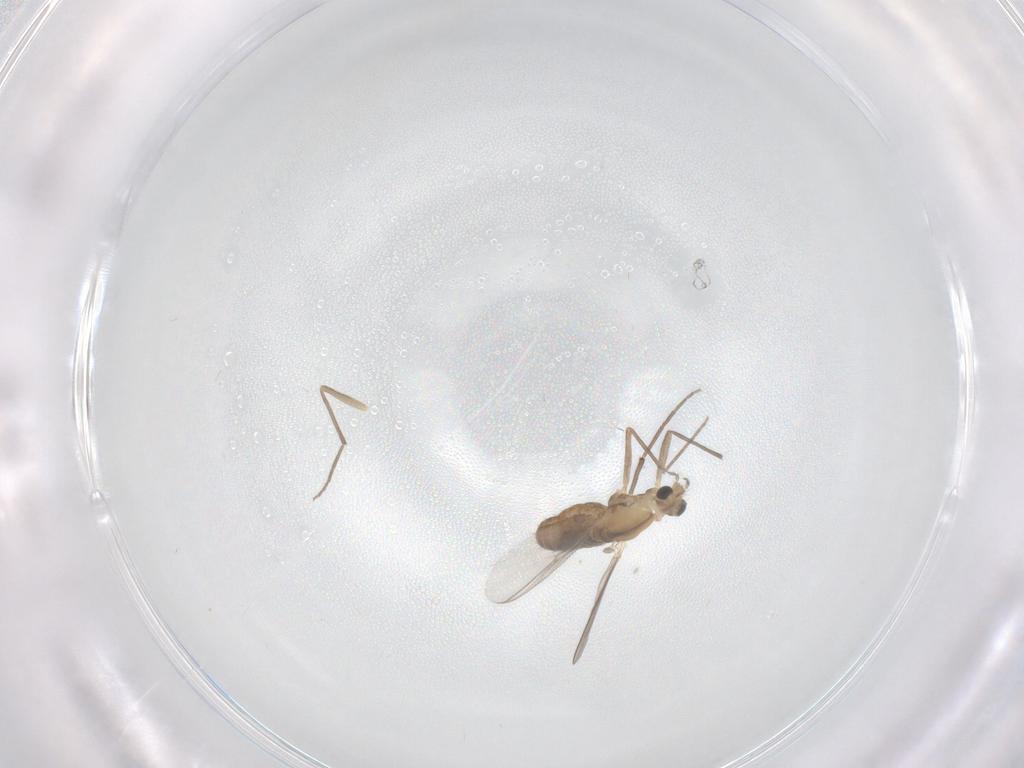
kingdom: Animalia
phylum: Arthropoda
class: Insecta
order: Diptera
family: Chironomidae
